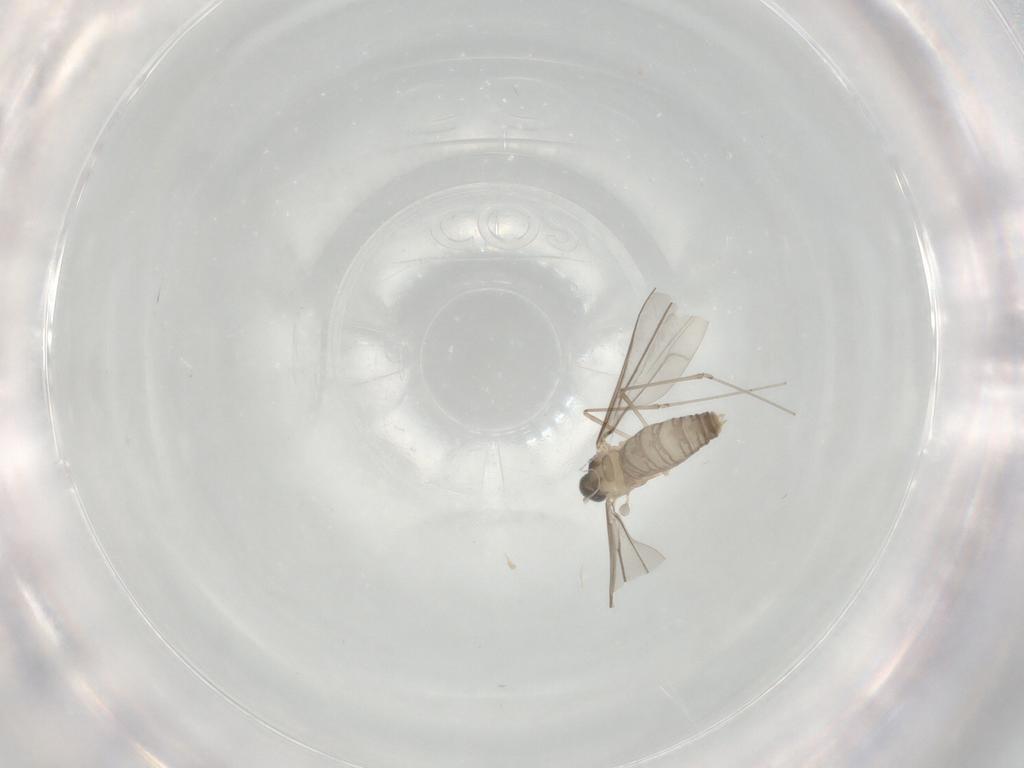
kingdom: Animalia
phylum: Arthropoda
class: Insecta
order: Diptera
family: Cecidomyiidae
